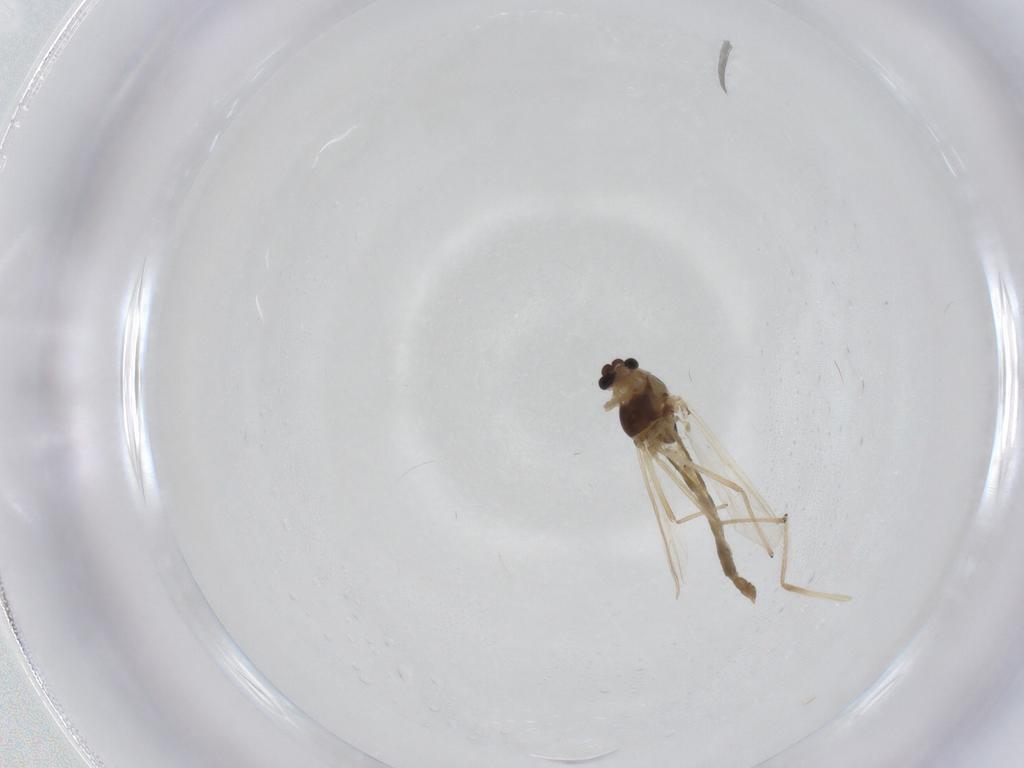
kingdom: Animalia
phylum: Arthropoda
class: Insecta
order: Diptera
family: Chironomidae
